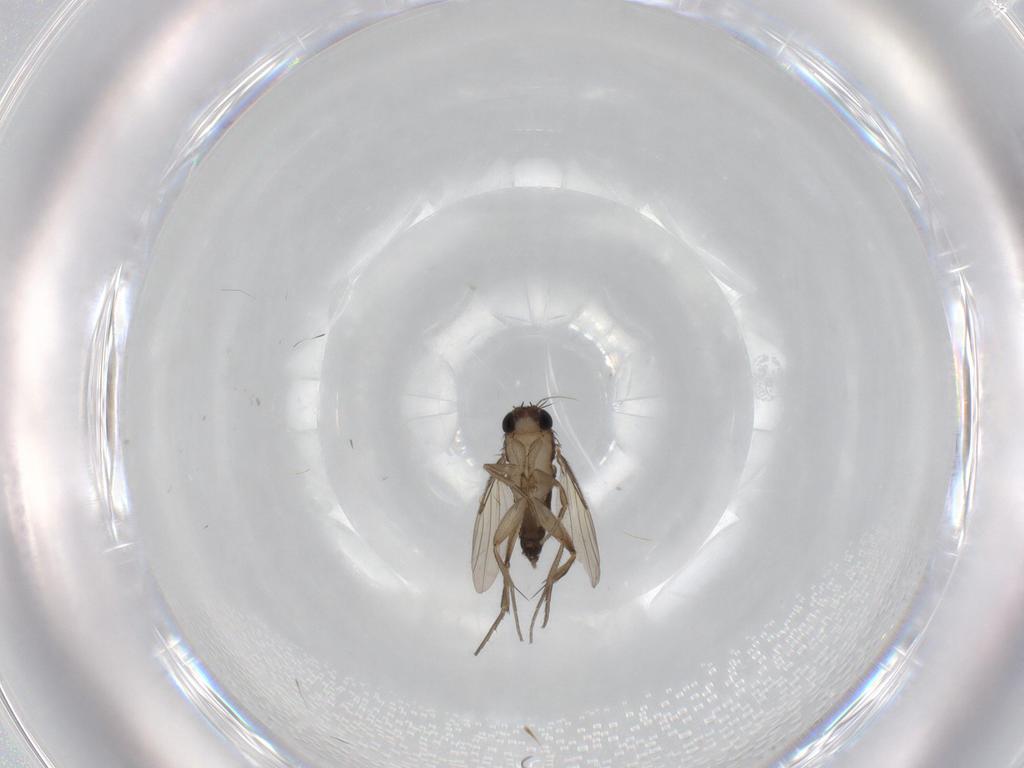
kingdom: Animalia
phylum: Arthropoda
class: Insecta
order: Diptera
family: Phoridae
